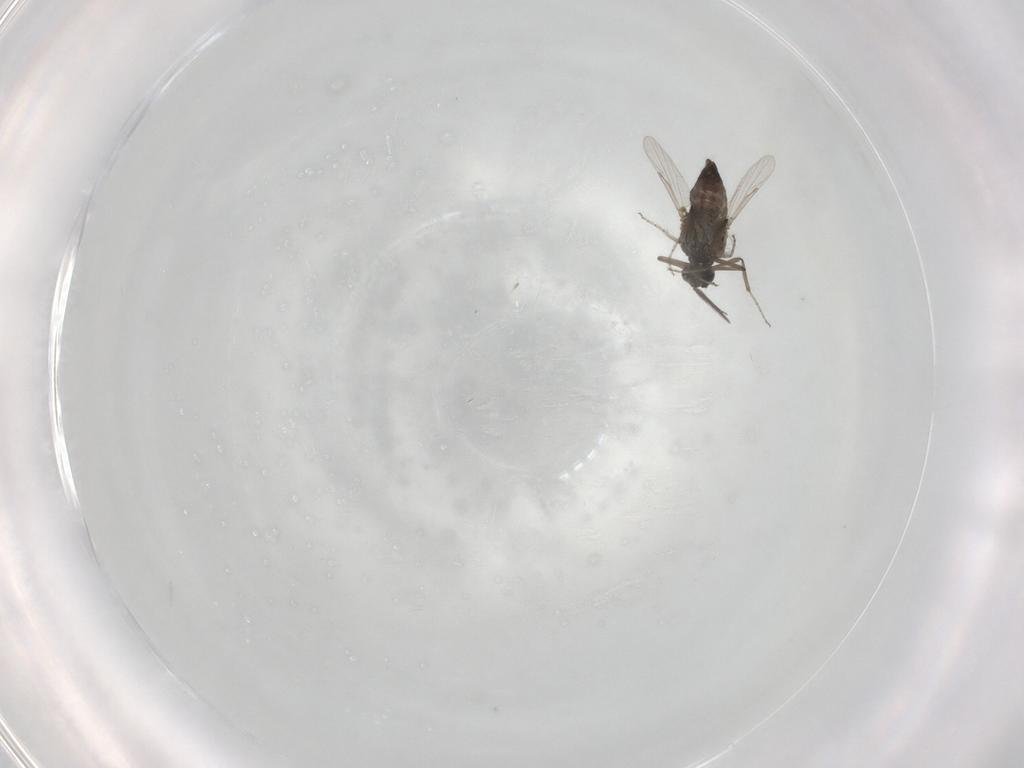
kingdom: Animalia
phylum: Arthropoda
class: Insecta
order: Diptera
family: Ceratopogonidae
